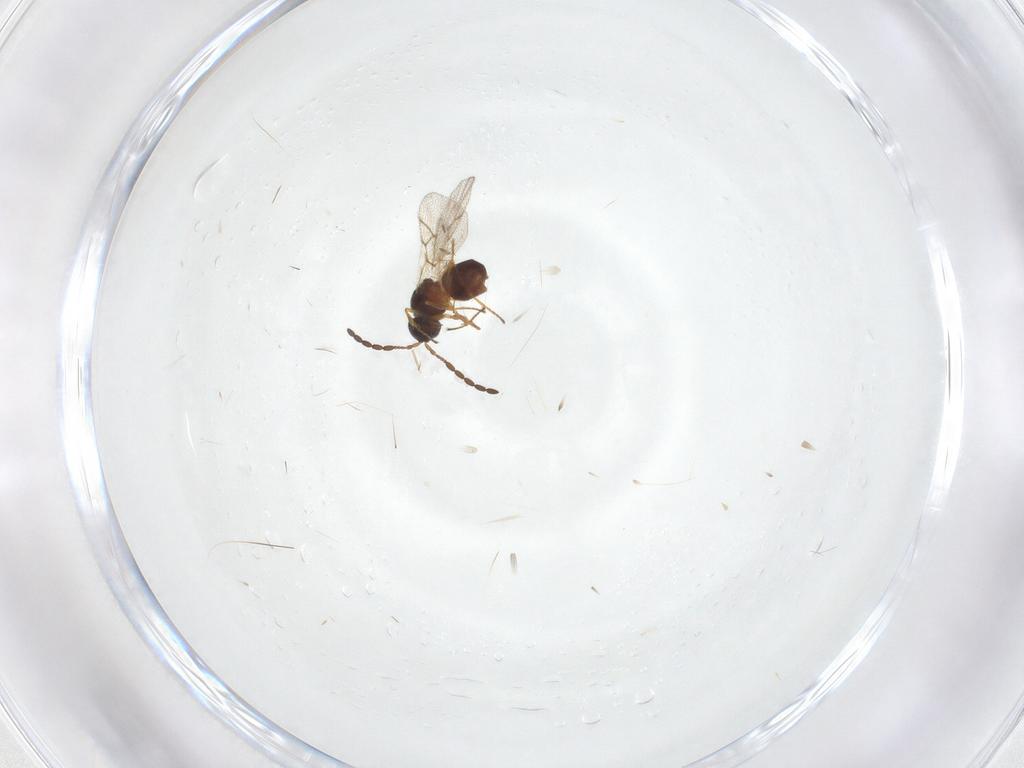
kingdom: Animalia
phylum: Arthropoda
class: Insecta
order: Hymenoptera
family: Figitidae
